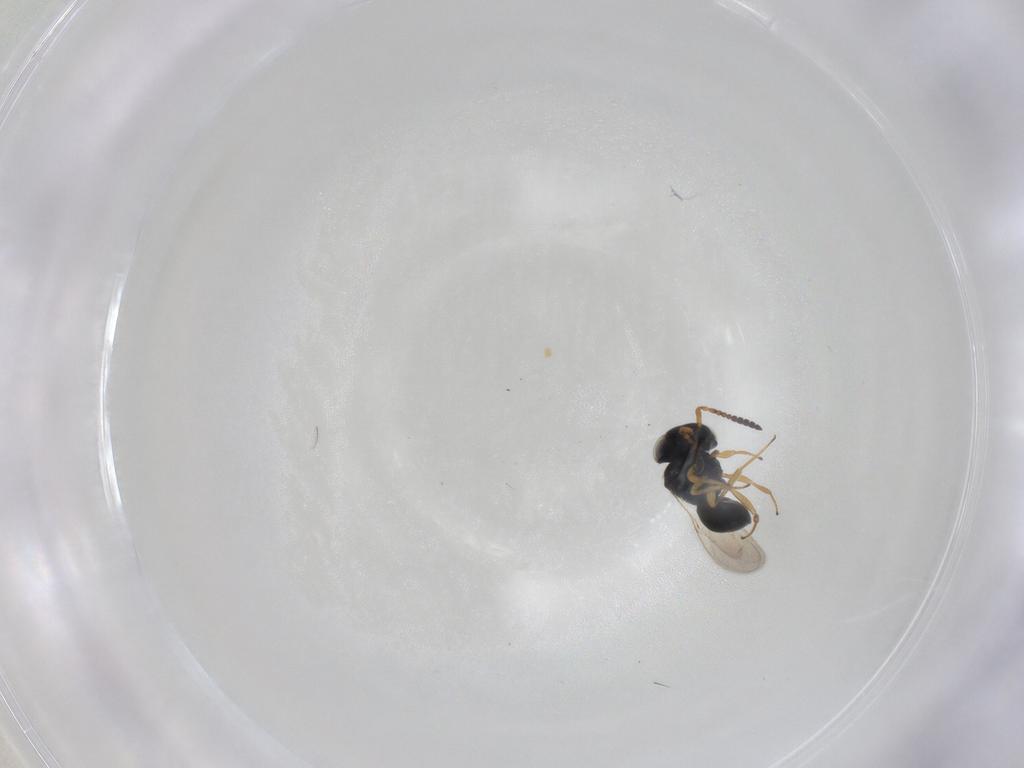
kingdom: Animalia
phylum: Arthropoda
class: Insecta
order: Hymenoptera
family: Scelionidae
